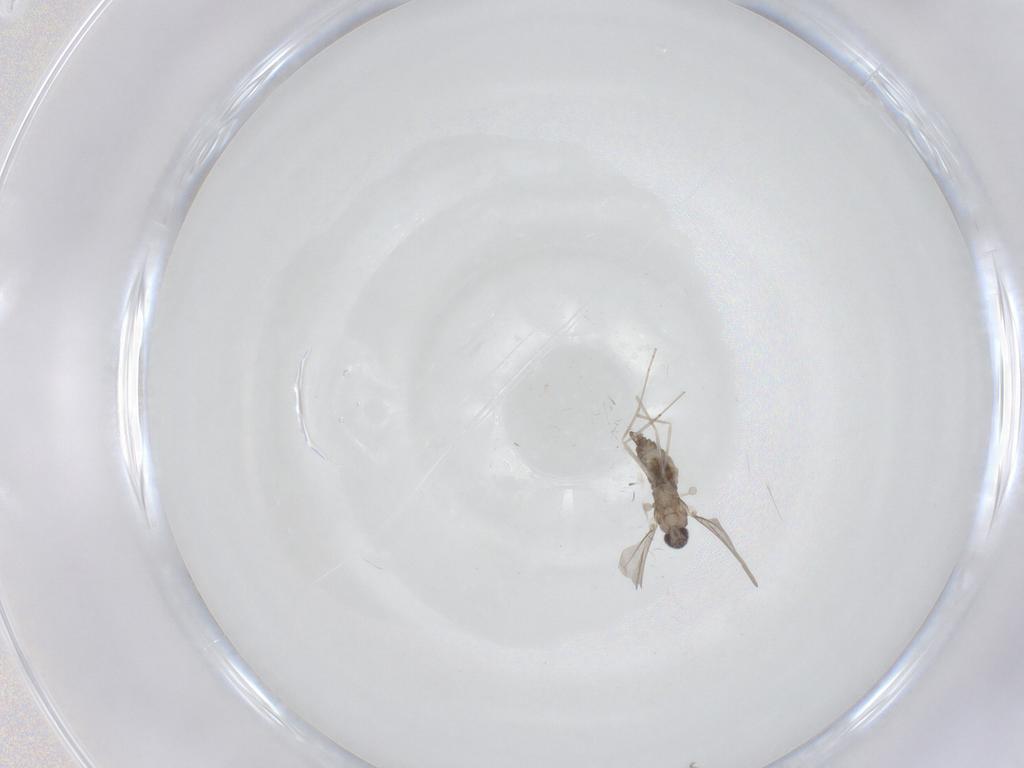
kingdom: Animalia
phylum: Arthropoda
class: Insecta
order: Diptera
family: Cecidomyiidae
